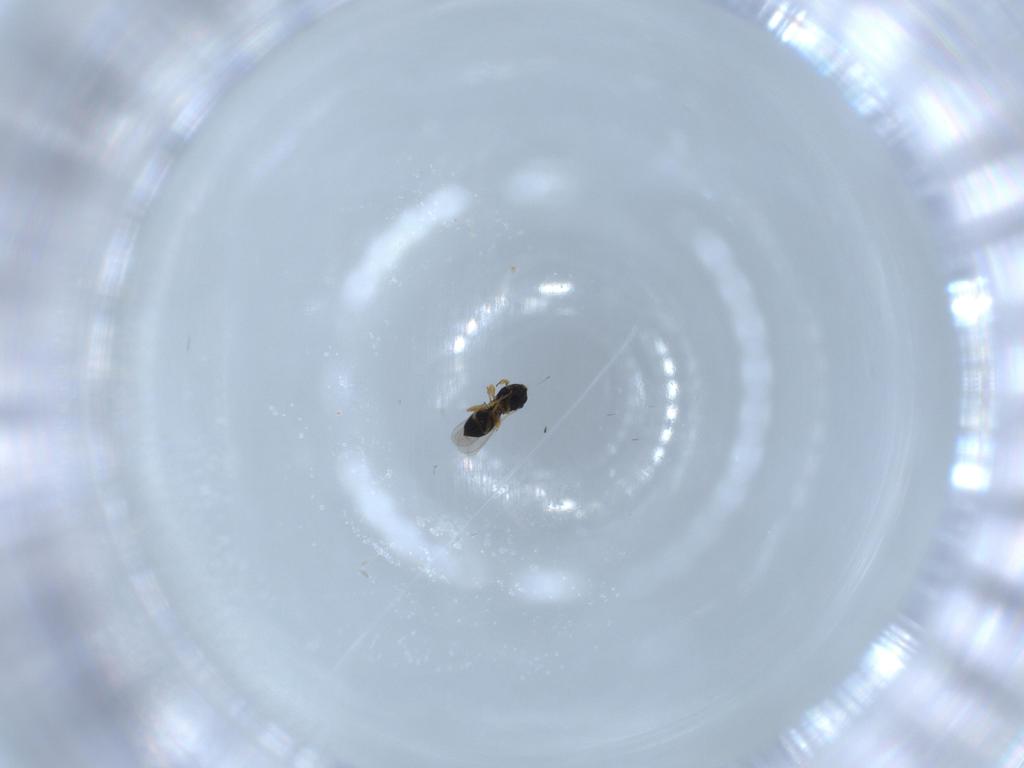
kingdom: Animalia
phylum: Arthropoda
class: Insecta
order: Hymenoptera
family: Scelionidae
